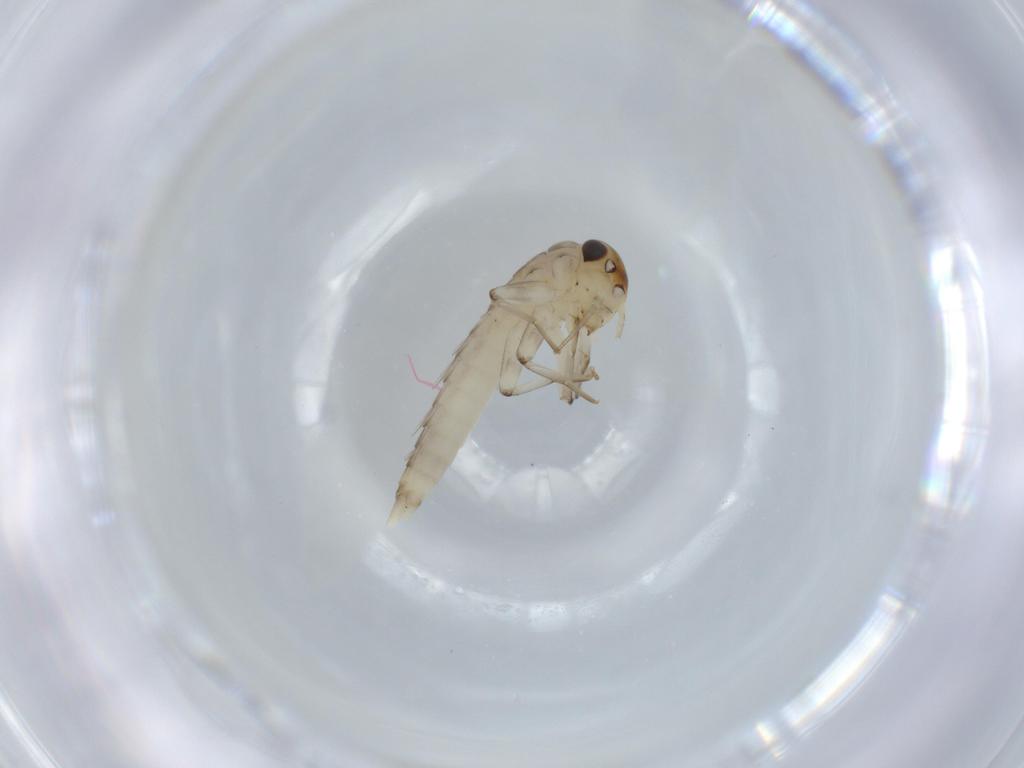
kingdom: Animalia
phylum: Arthropoda
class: Insecta
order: Ephemeroptera
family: Baetidae
